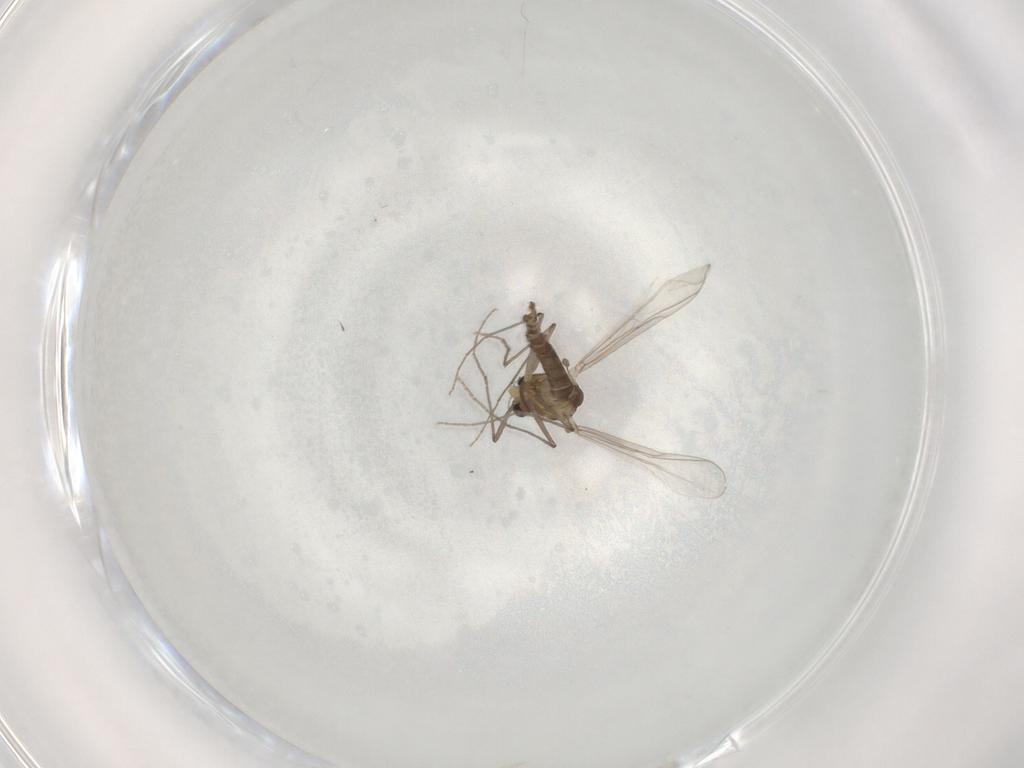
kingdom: Animalia
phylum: Arthropoda
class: Insecta
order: Diptera
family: Chironomidae
